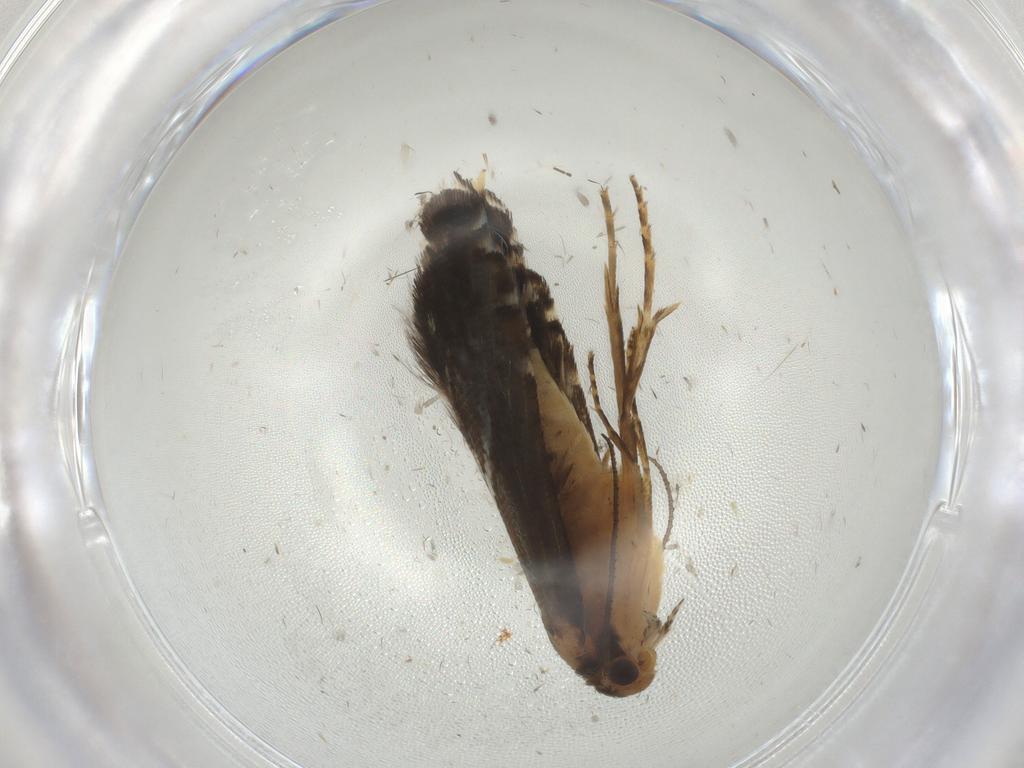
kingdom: Animalia
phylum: Arthropoda
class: Insecta
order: Lepidoptera
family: Glyphipterigidae
